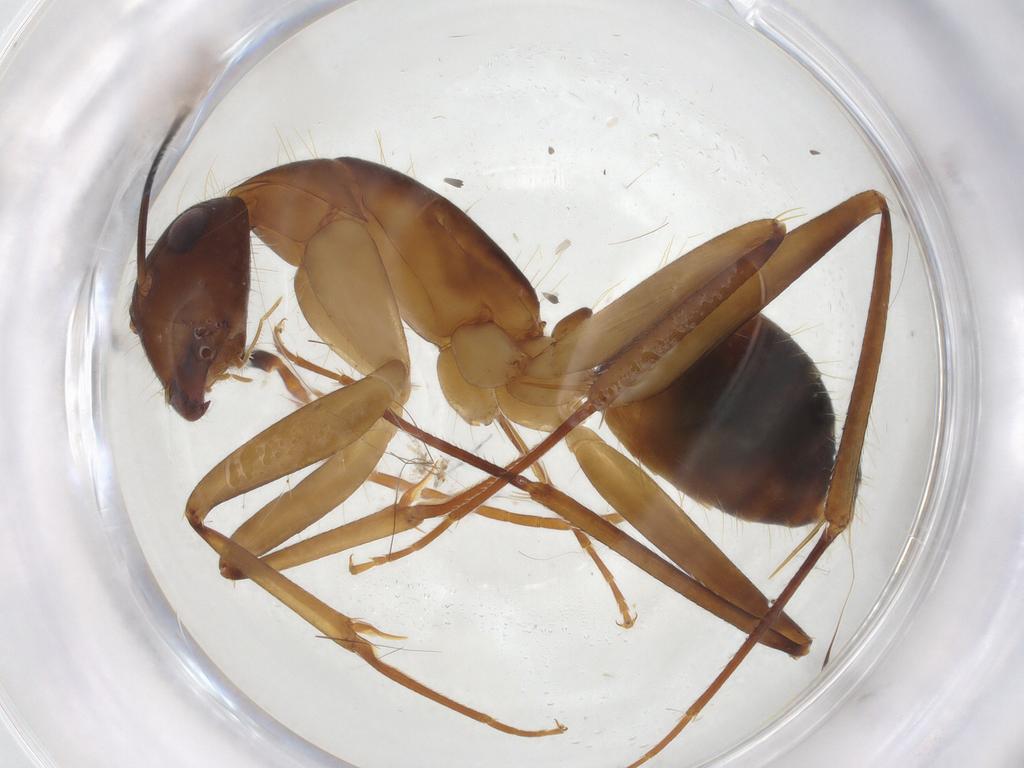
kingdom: Animalia
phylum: Arthropoda
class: Insecta
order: Hymenoptera
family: Formicidae
